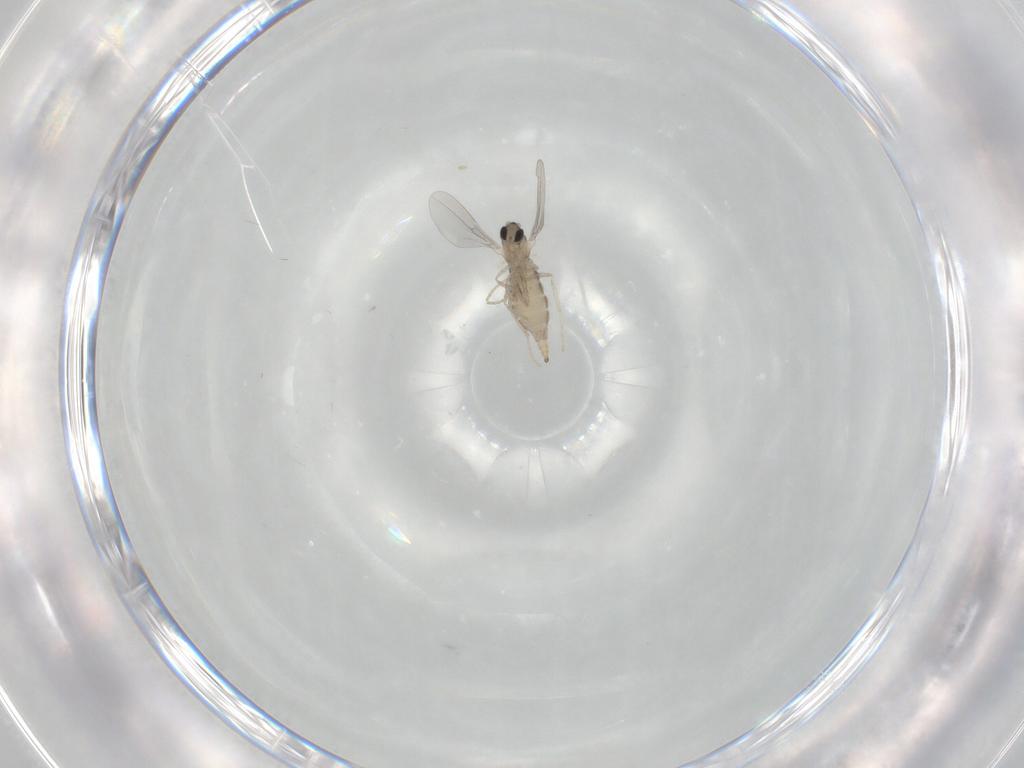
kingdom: Animalia
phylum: Arthropoda
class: Insecta
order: Diptera
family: Cecidomyiidae
